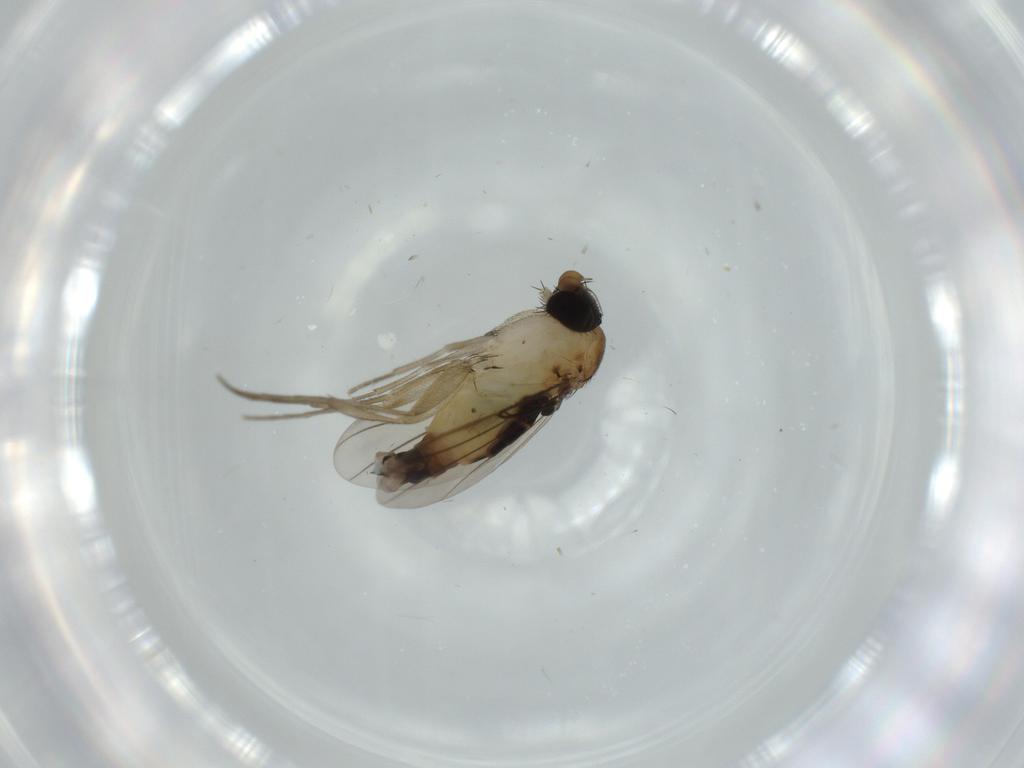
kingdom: Animalia
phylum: Arthropoda
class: Insecta
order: Diptera
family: Phoridae
